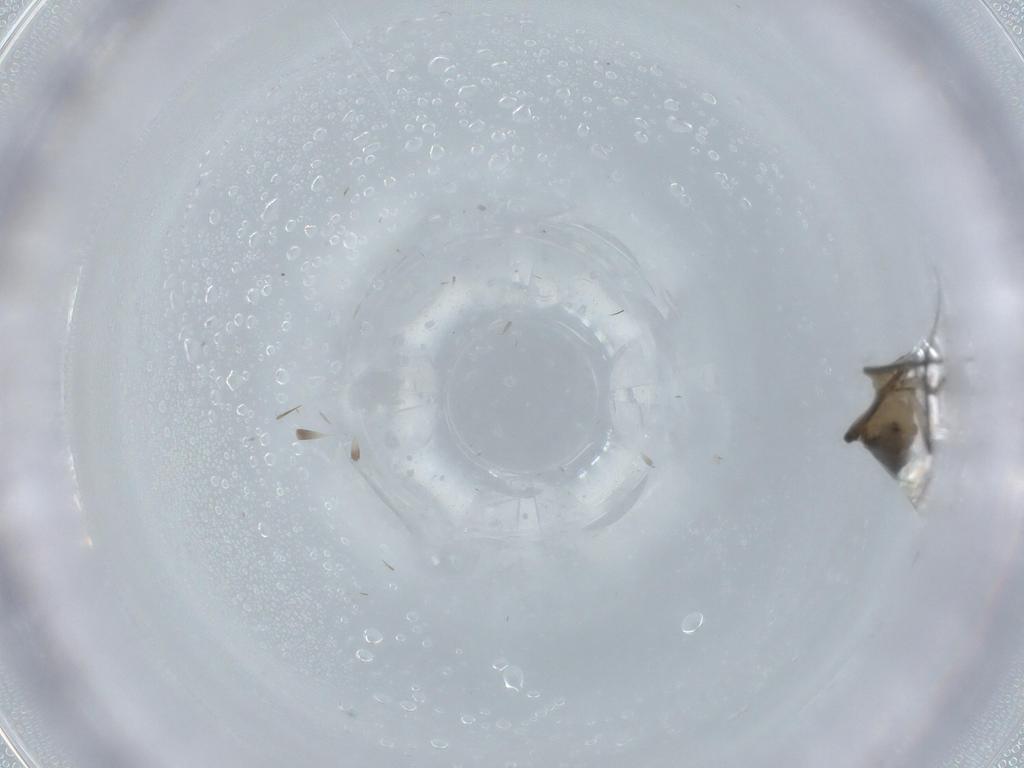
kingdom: Animalia
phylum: Arthropoda
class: Insecta
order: Diptera
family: Phoridae
